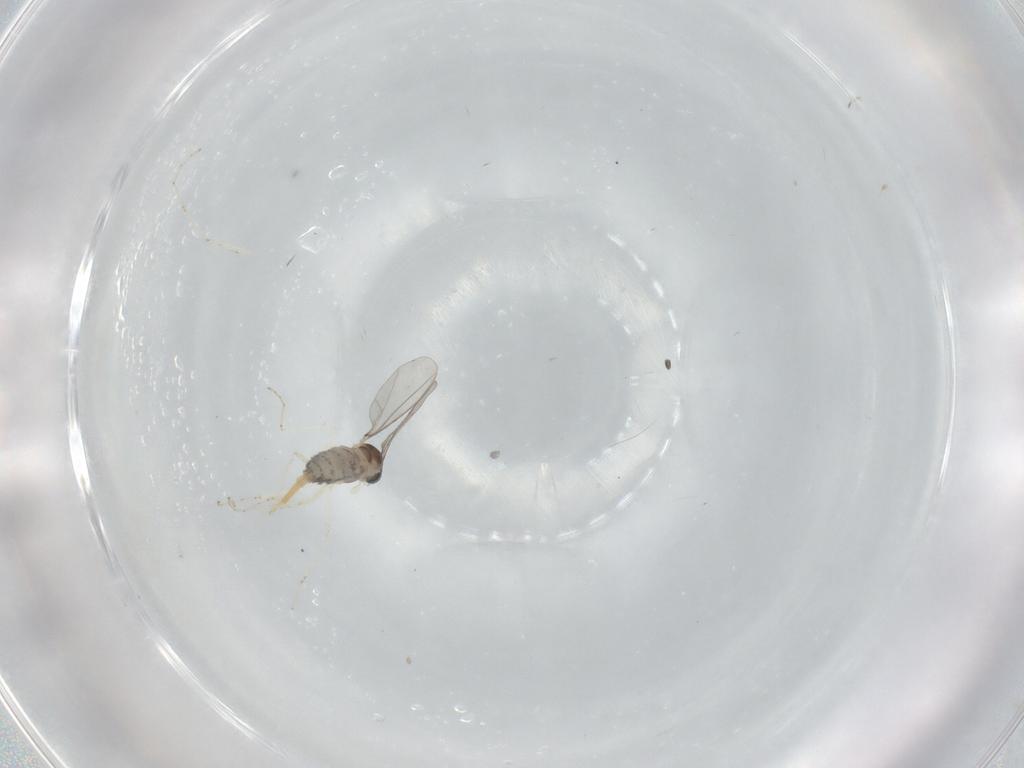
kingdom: Animalia
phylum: Arthropoda
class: Insecta
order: Diptera
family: Cecidomyiidae
